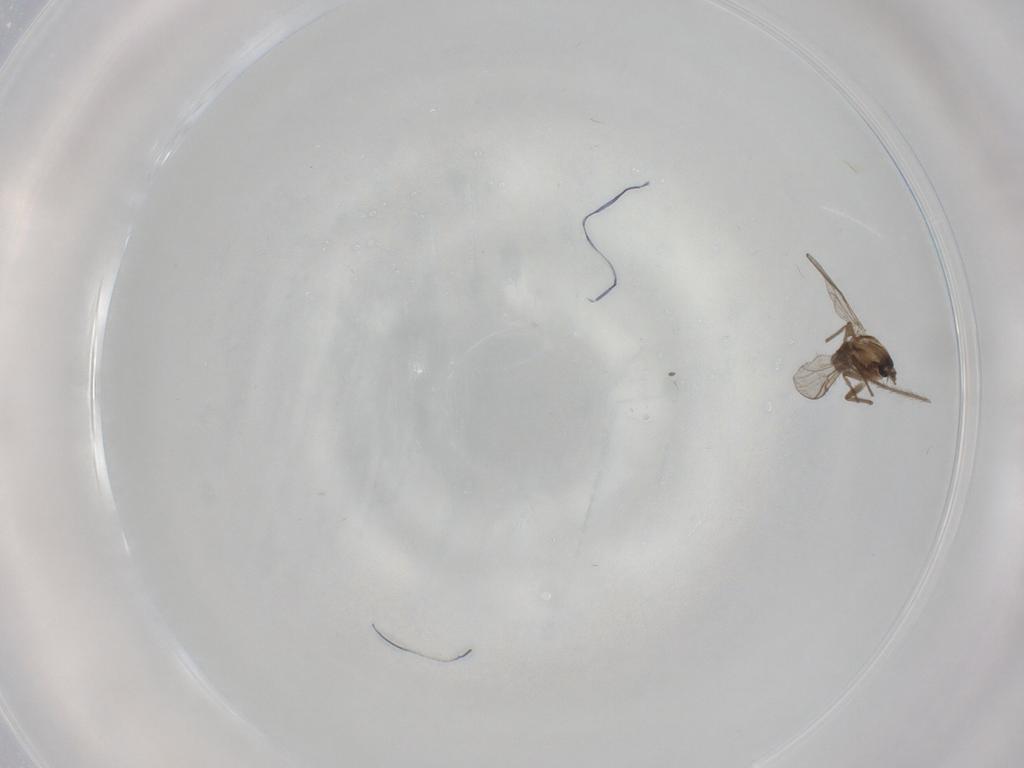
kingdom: Animalia
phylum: Arthropoda
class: Insecta
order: Diptera
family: Chironomidae
